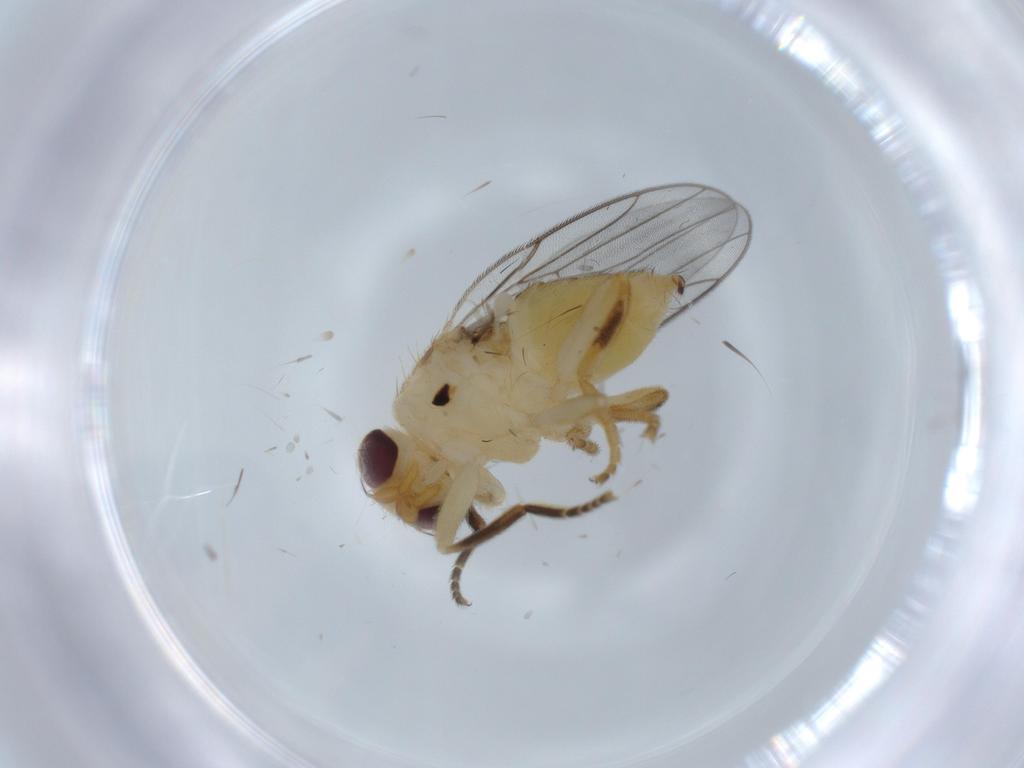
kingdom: Animalia
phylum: Arthropoda
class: Insecta
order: Diptera
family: Chloropidae
